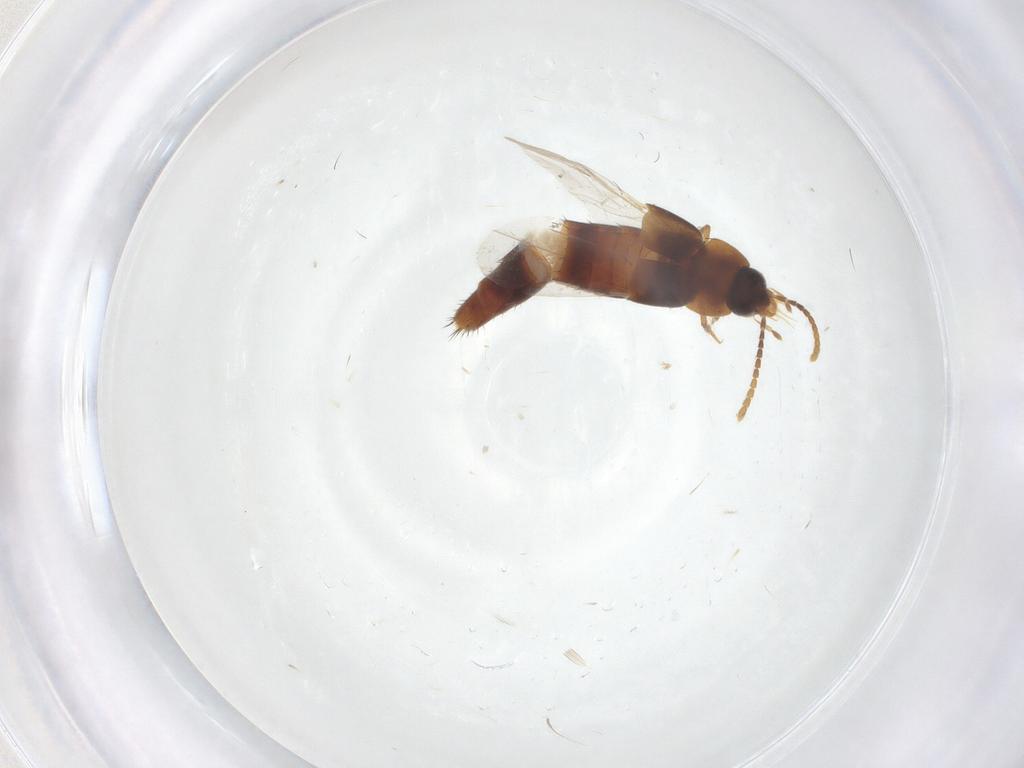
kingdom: Animalia
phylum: Arthropoda
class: Insecta
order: Coleoptera
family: Staphylinidae
